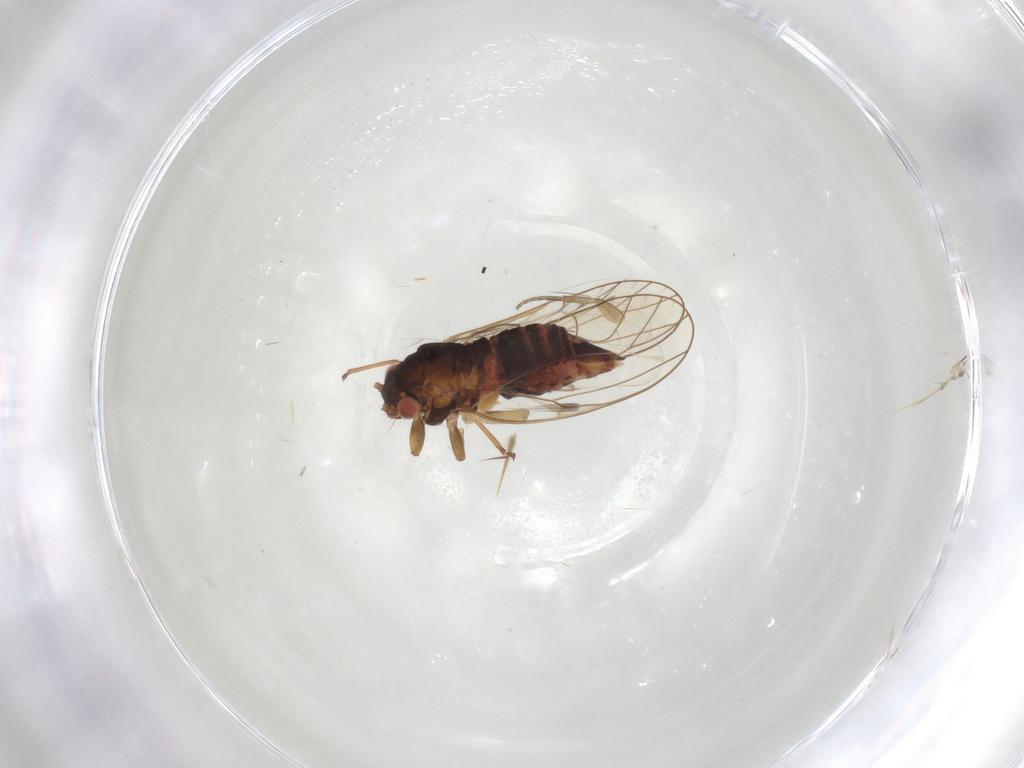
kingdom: Animalia
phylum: Arthropoda
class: Insecta
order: Diptera
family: Phoridae
